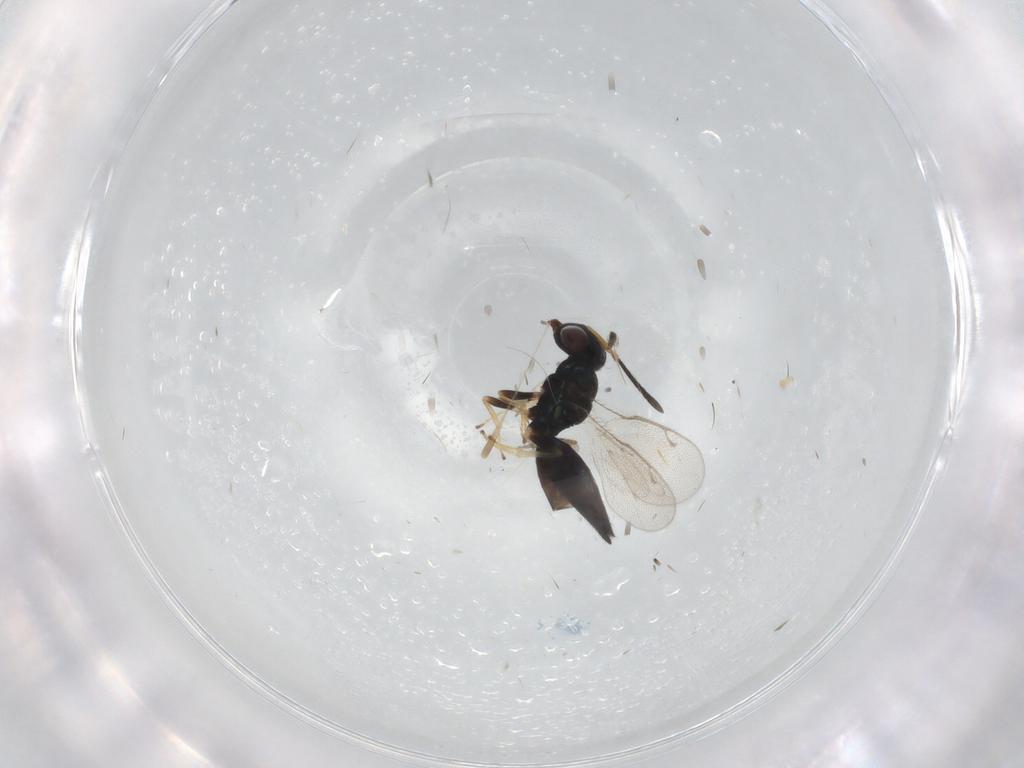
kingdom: Animalia
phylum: Arthropoda
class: Insecta
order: Hymenoptera
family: Pteromalidae
